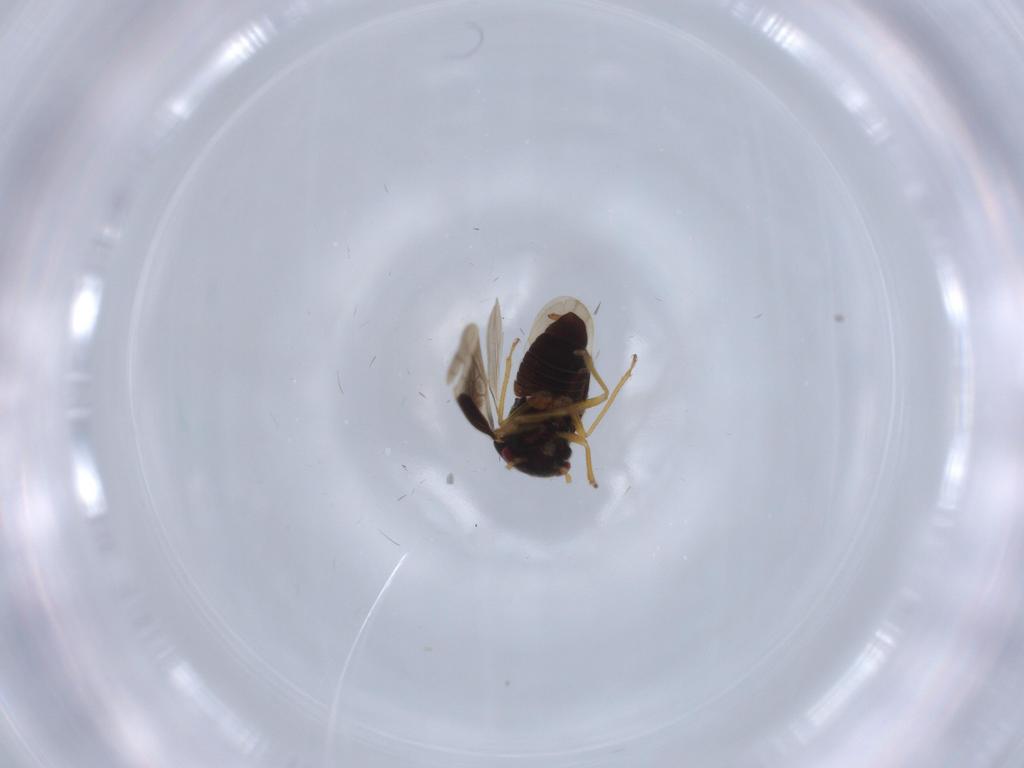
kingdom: Animalia
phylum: Arthropoda
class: Insecta
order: Hemiptera
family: Schizopteridae
